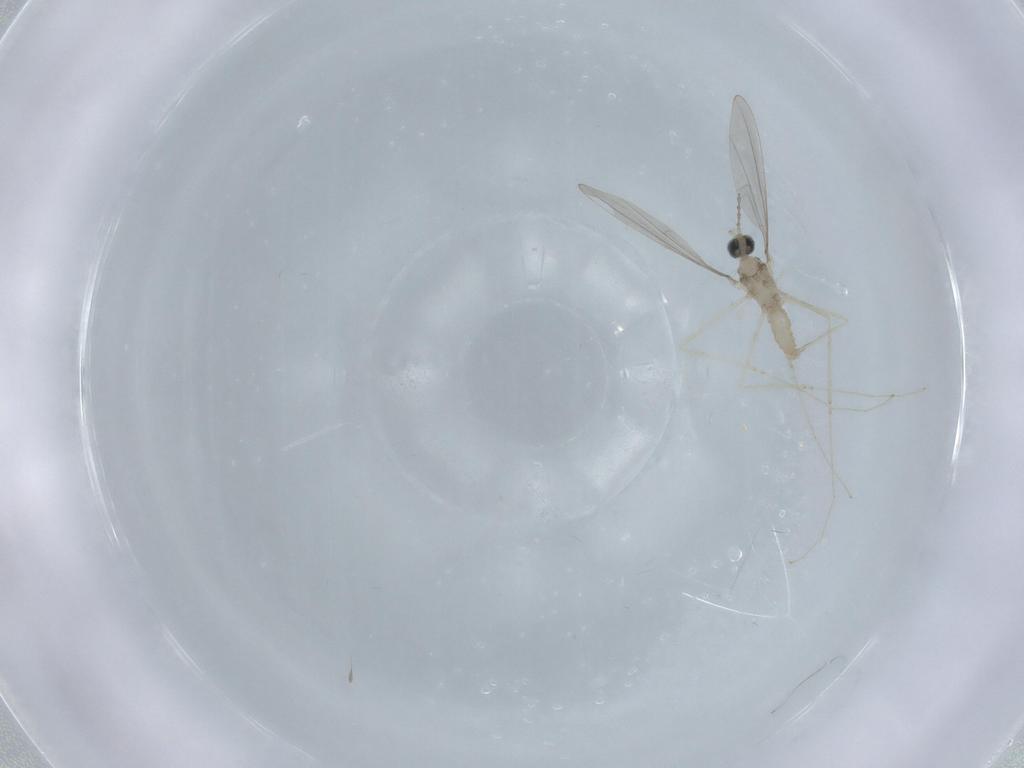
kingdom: Animalia
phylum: Arthropoda
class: Insecta
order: Diptera
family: Cecidomyiidae
